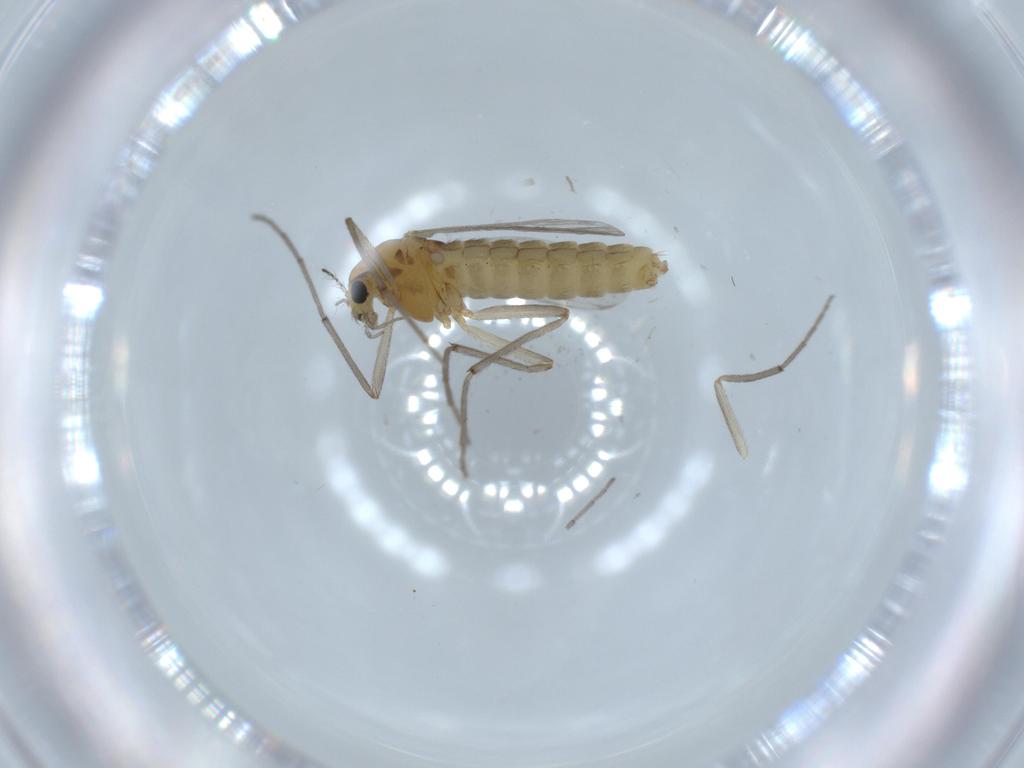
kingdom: Animalia
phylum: Arthropoda
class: Insecta
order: Diptera
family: Chironomidae
